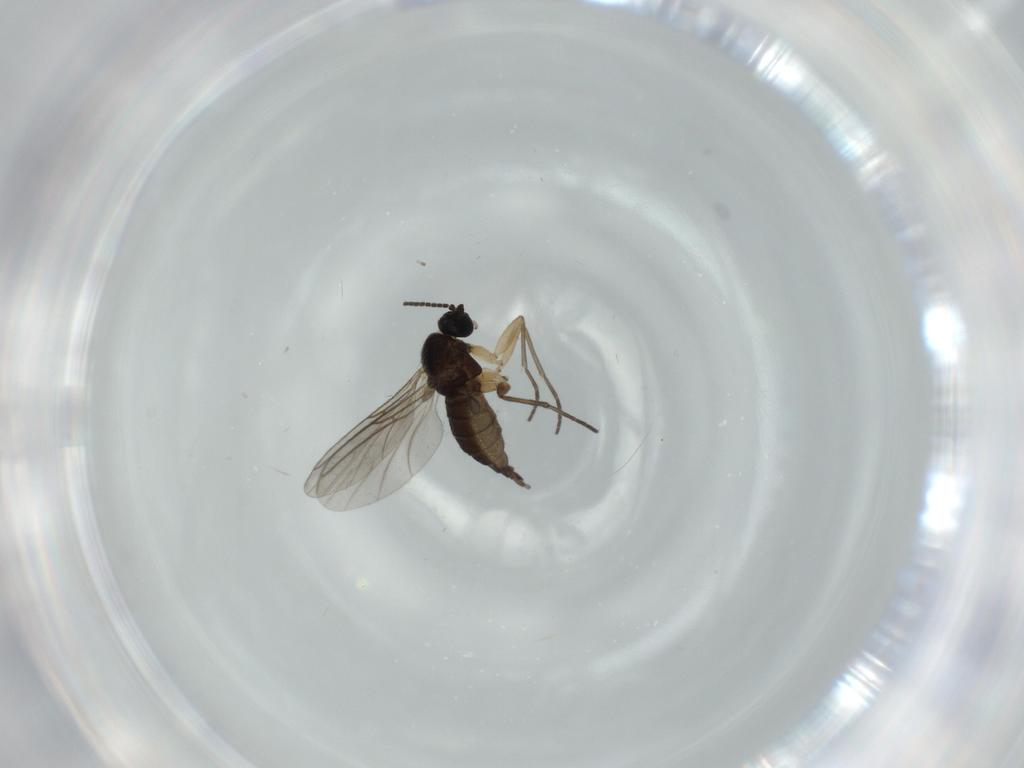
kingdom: Animalia
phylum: Arthropoda
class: Insecta
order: Diptera
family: Sciaridae
